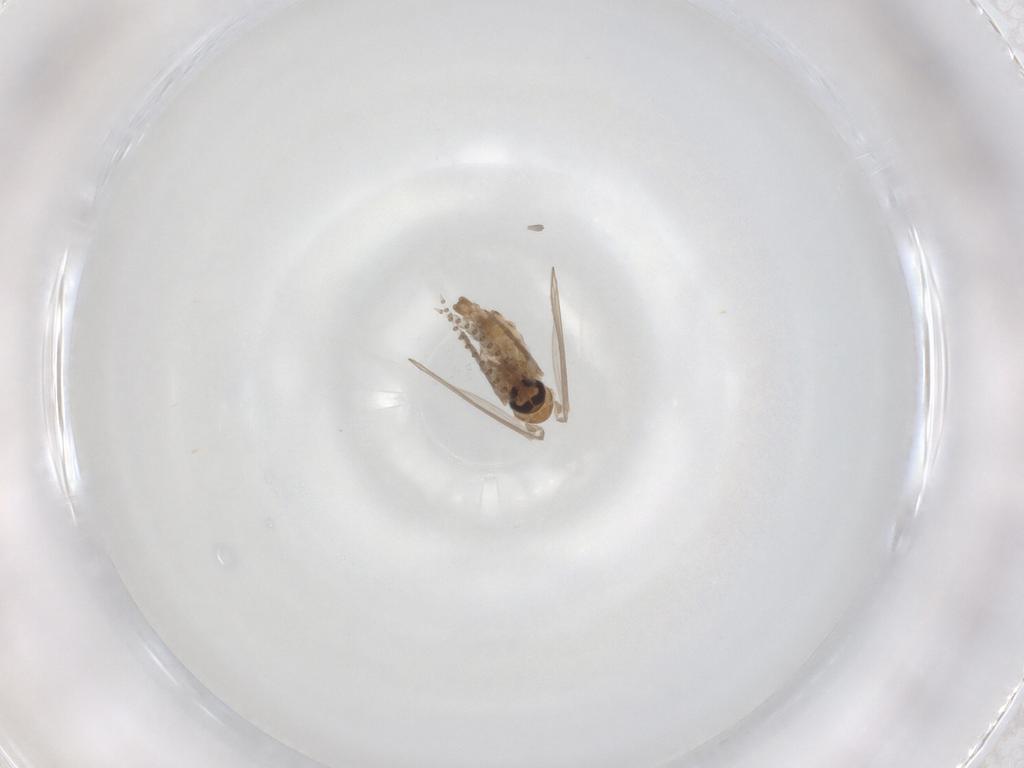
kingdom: Animalia
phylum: Arthropoda
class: Insecta
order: Diptera
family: Psychodidae
